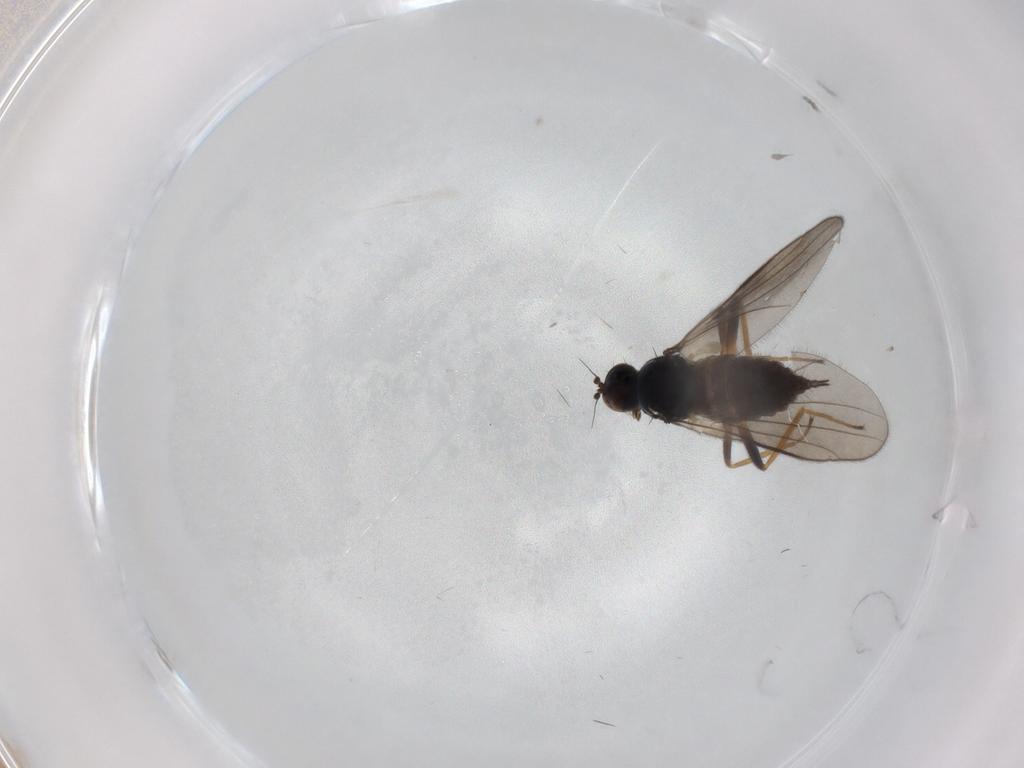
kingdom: Animalia
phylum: Arthropoda
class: Insecta
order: Diptera
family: Hybotidae
